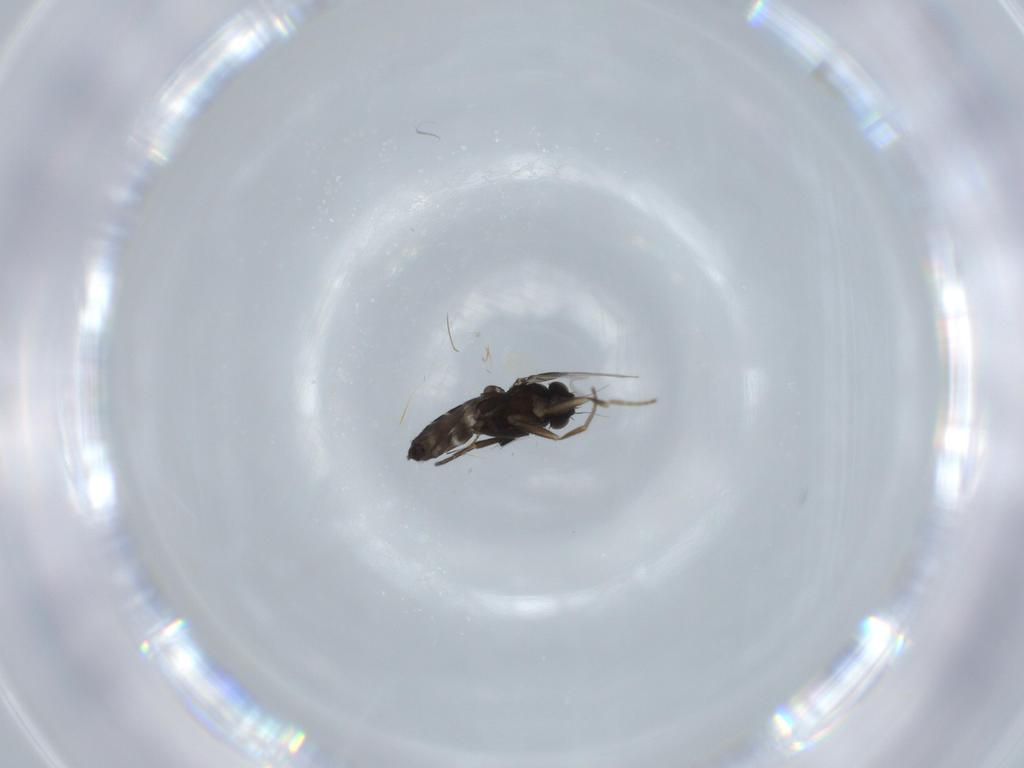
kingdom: Animalia
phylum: Arthropoda
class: Insecta
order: Diptera
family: Phoridae
